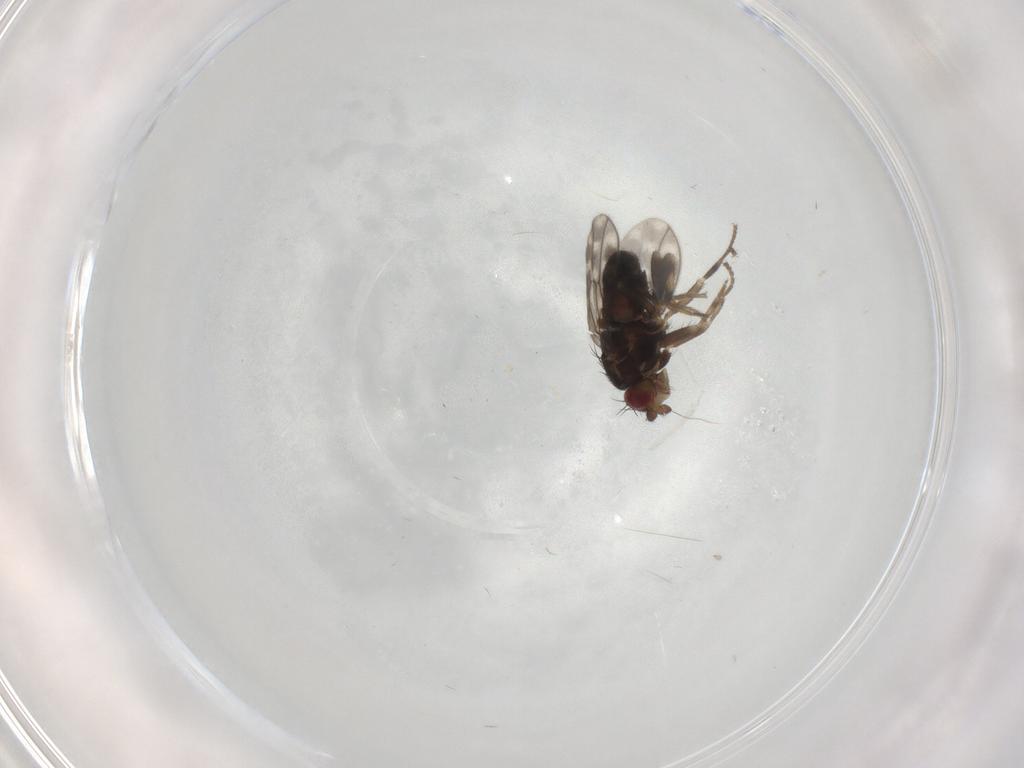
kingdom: Animalia
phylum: Arthropoda
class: Insecta
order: Diptera
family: Sphaeroceridae
